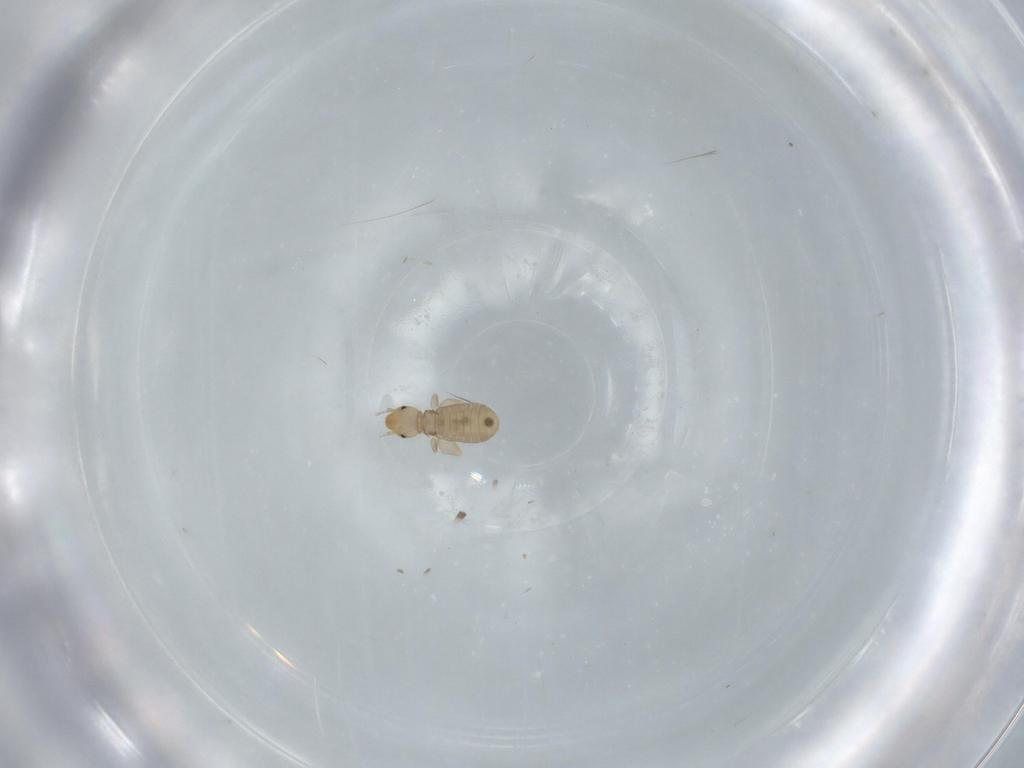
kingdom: Animalia
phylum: Arthropoda
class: Insecta
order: Psocodea
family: Liposcelididae
